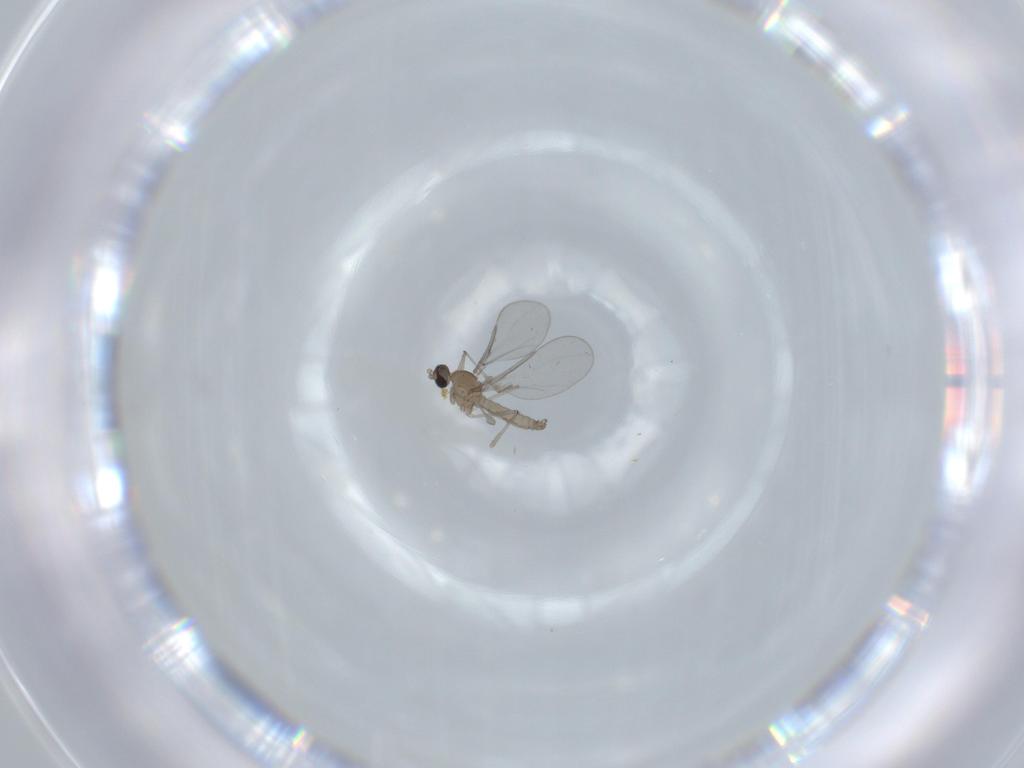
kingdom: Animalia
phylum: Arthropoda
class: Insecta
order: Diptera
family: Cecidomyiidae
